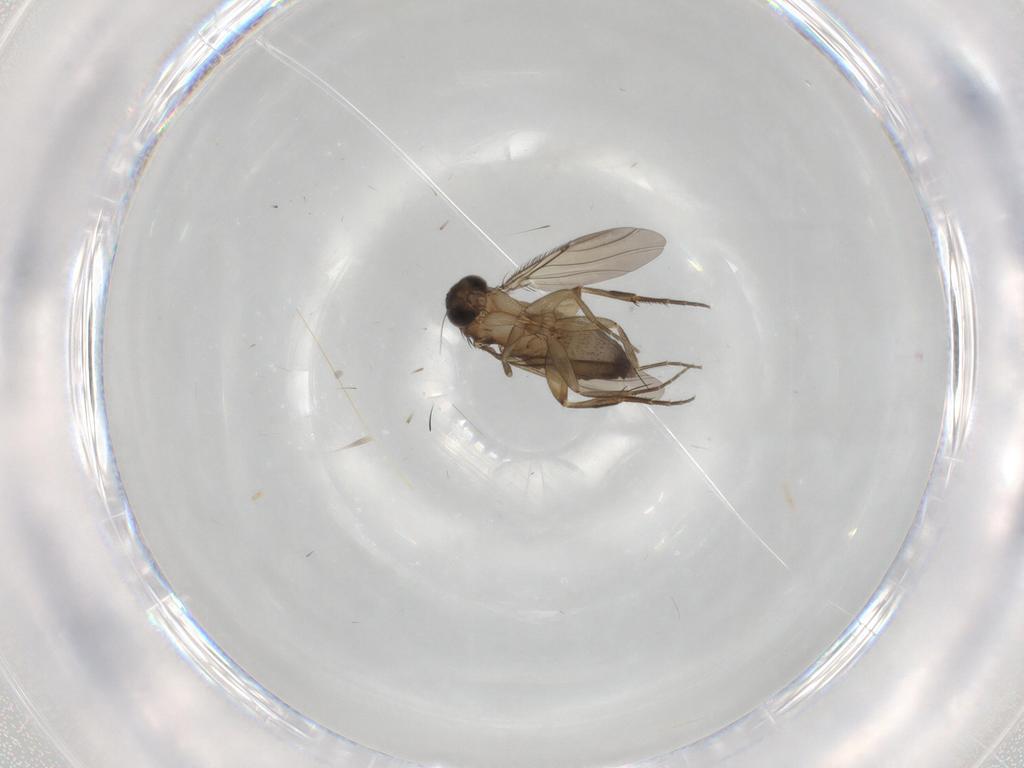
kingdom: Animalia
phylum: Arthropoda
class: Insecta
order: Diptera
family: Phoridae
